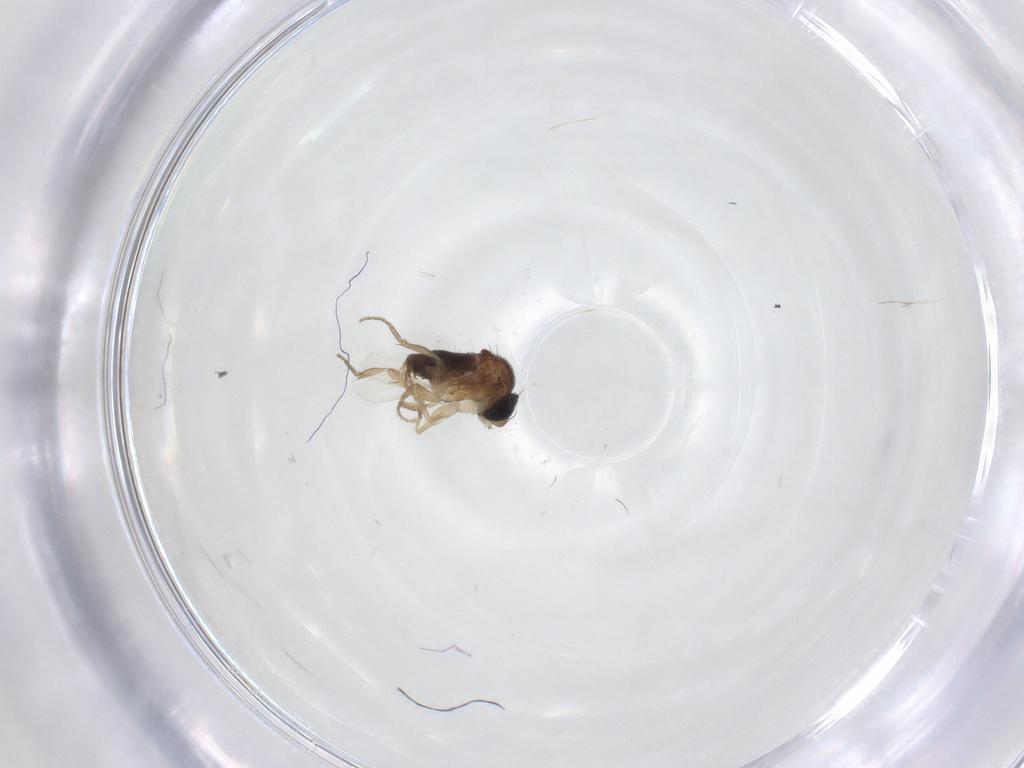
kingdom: Animalia
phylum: Arthropoda
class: Insecta
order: Diptera
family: Sciaridae
